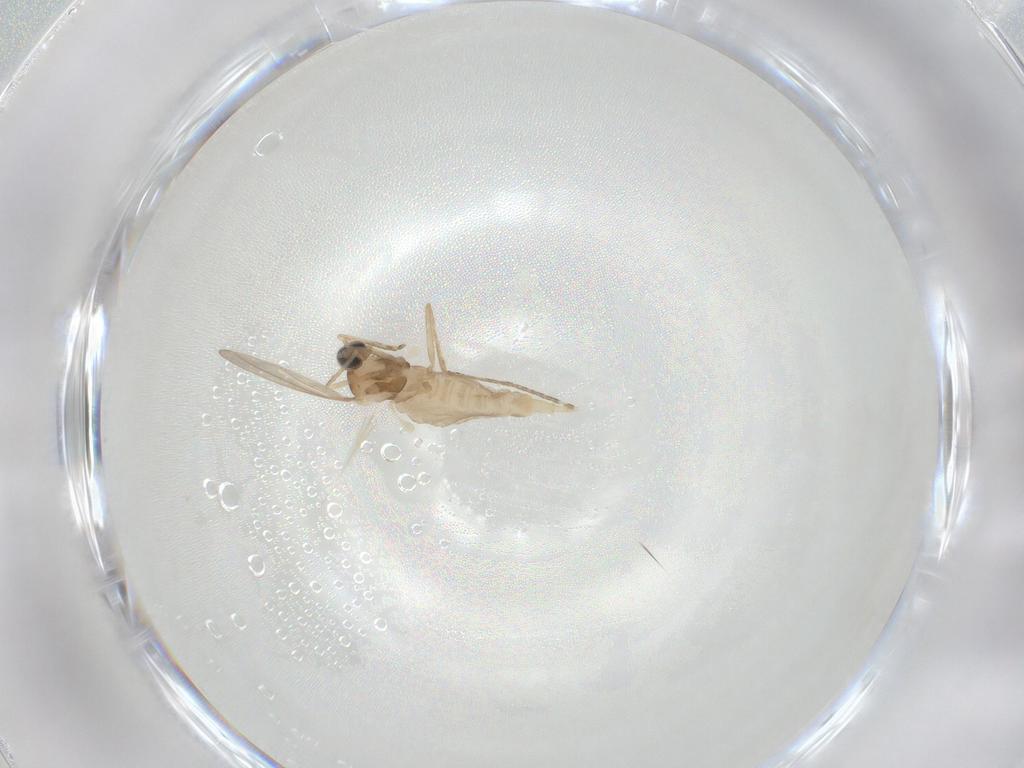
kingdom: Animalia
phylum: Arthropoda
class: Insecta
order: Diptera
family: Cecidomyiidae
